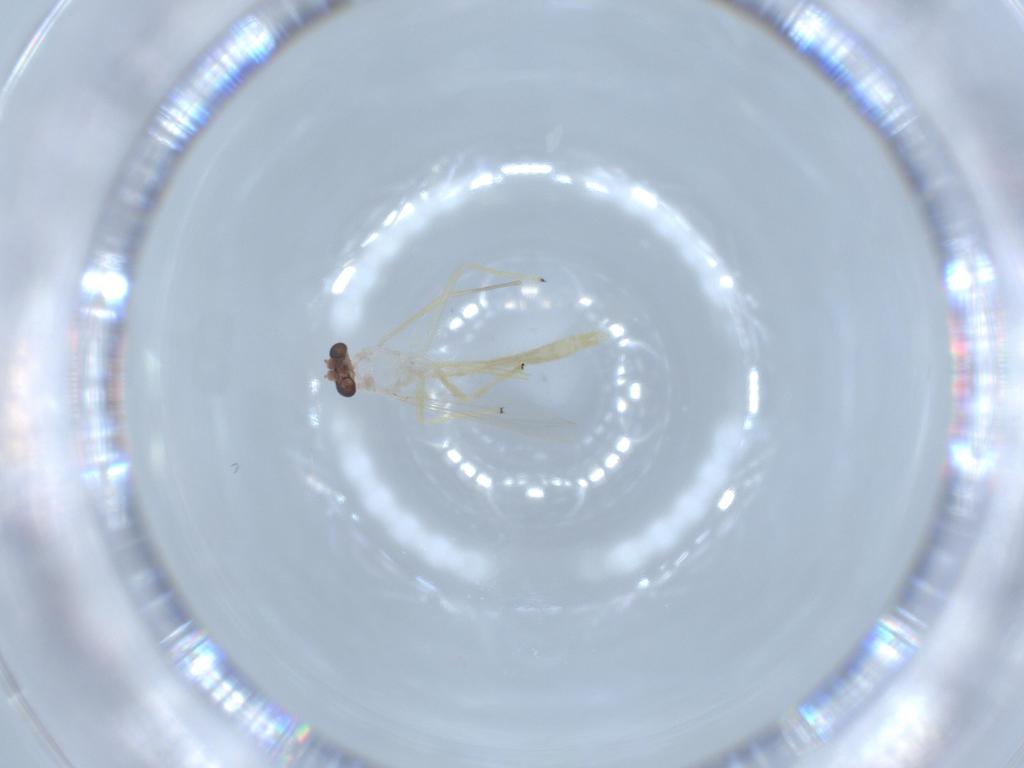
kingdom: Animalia
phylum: Arthropoda
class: Insecta
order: Diptera
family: Chironomidae
